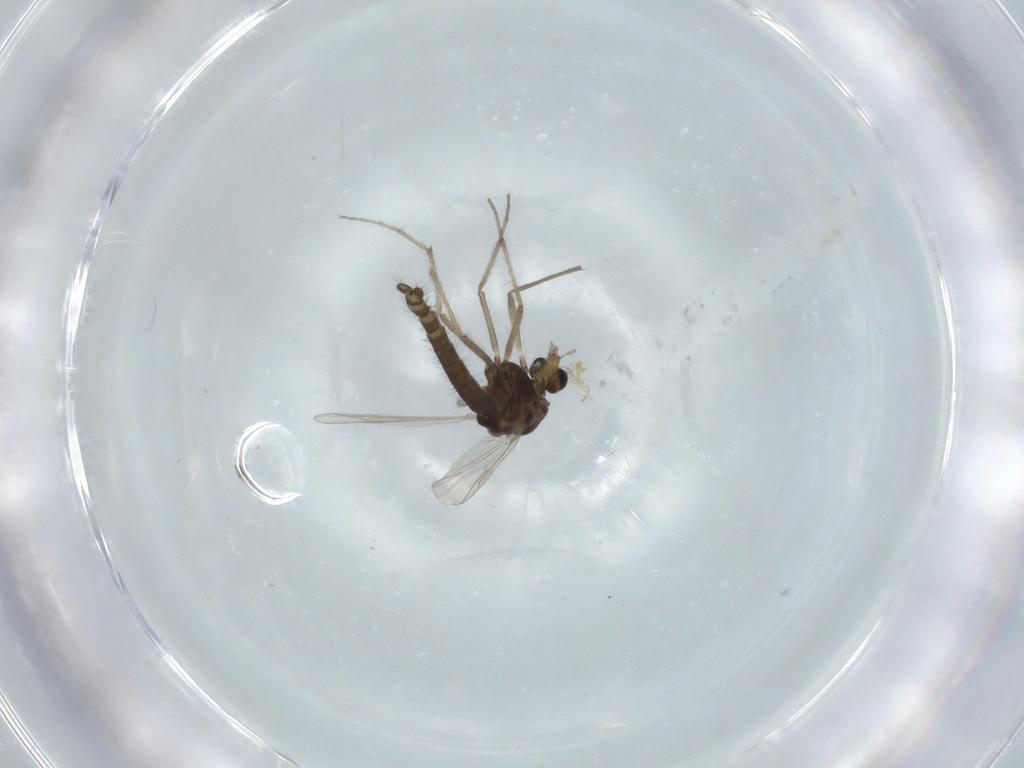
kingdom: Animalia
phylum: Arthropoda
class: Insecta
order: Diptera
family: Chironomidae
